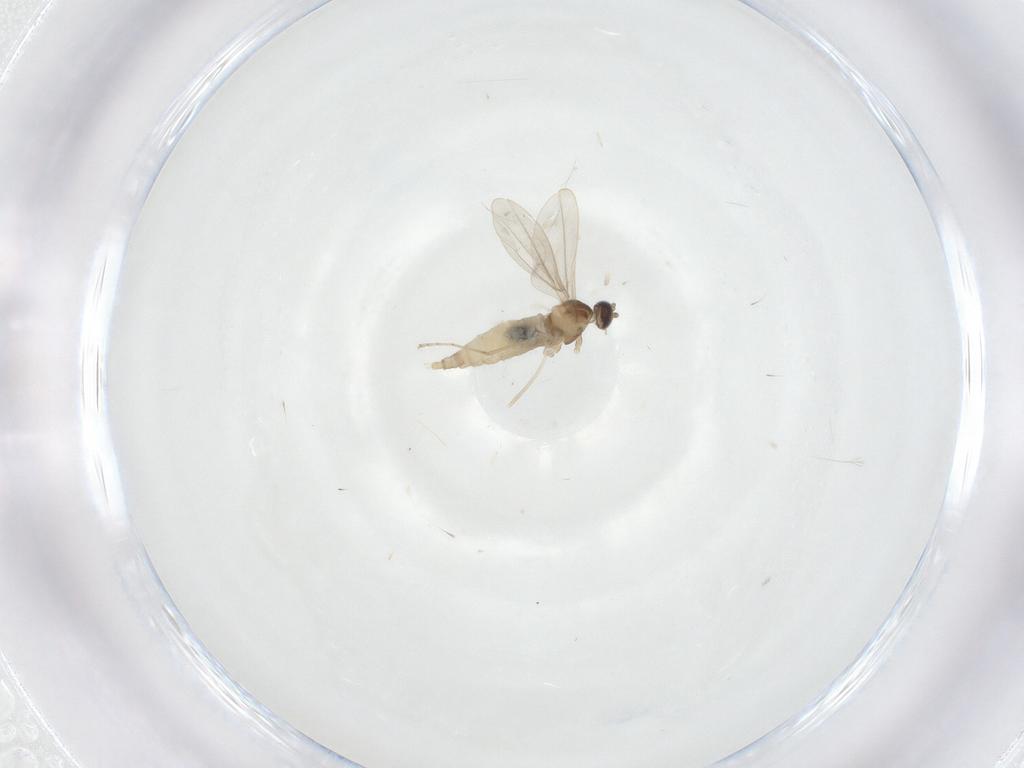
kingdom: Animalia
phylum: Arthropoda
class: Insecta
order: Diptera
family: Cecidomyiidae
